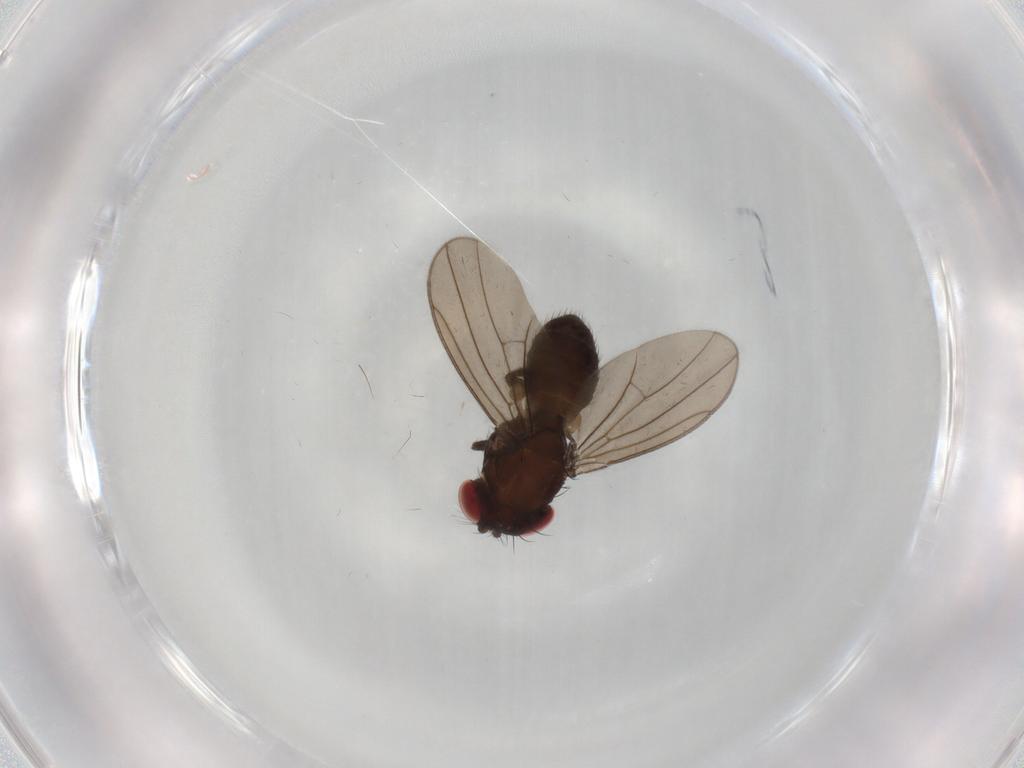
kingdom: Animalia
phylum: Arthropoda
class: Insecta
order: Diptera
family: Drosophilidae
